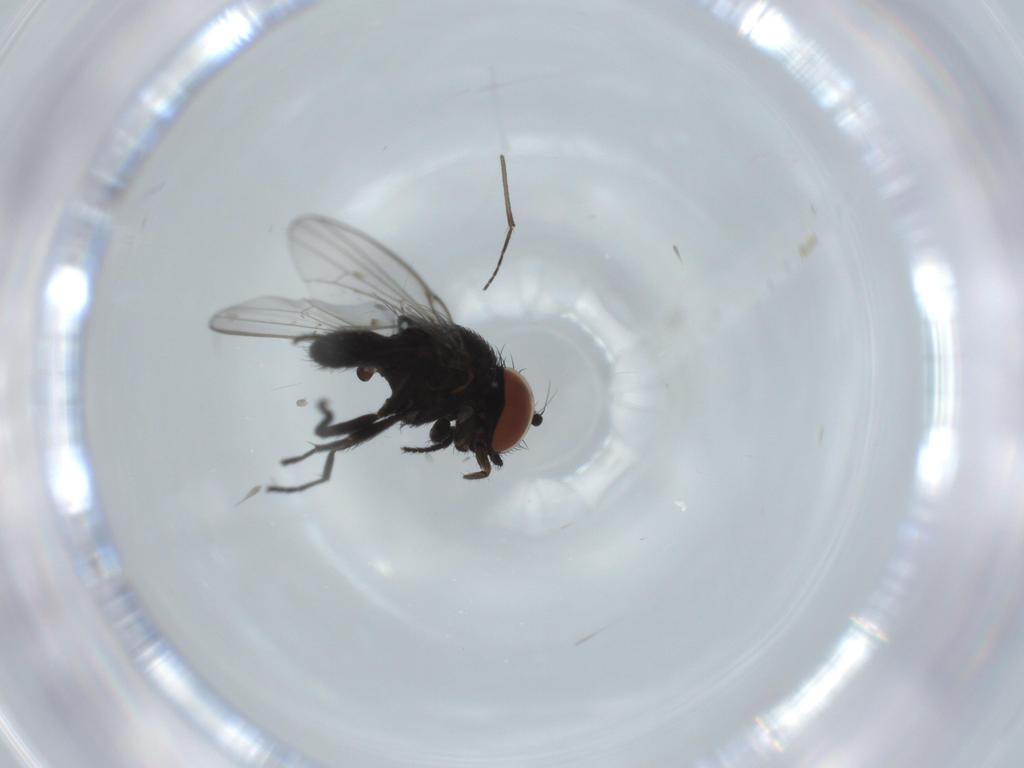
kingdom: Animalia
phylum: Arthropoda
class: Insecta
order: Diptera
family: Milichiidae
